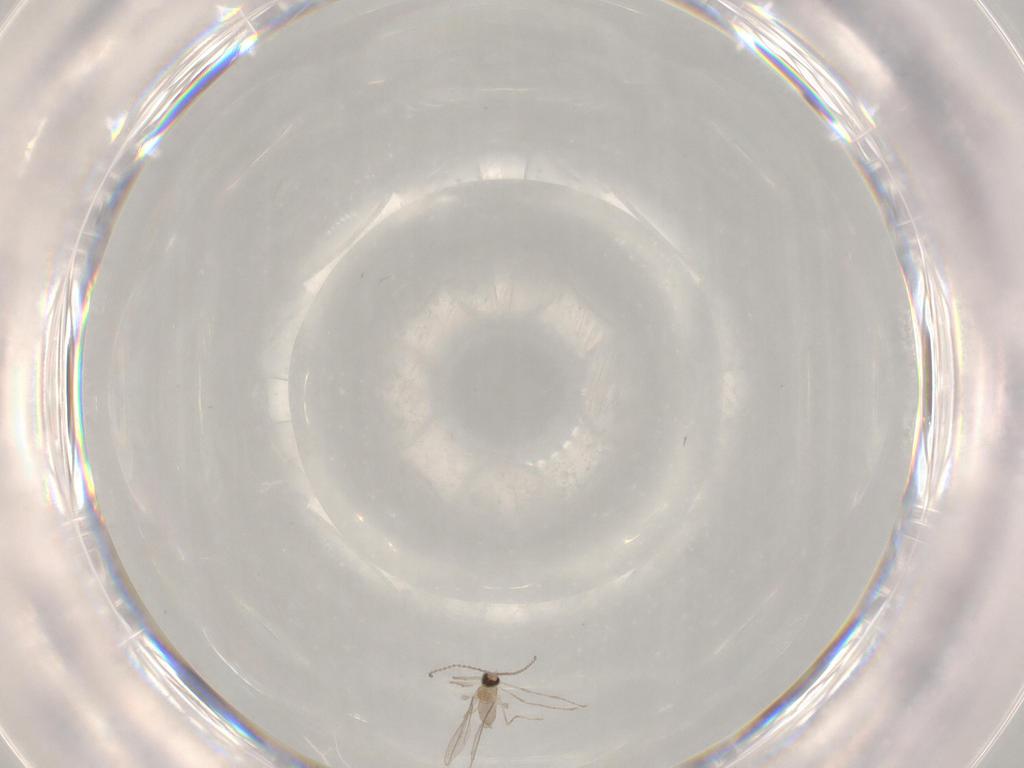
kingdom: Animalia
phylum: Arthropoda
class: Insecta
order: Diptera
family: Cecidomyiidae
